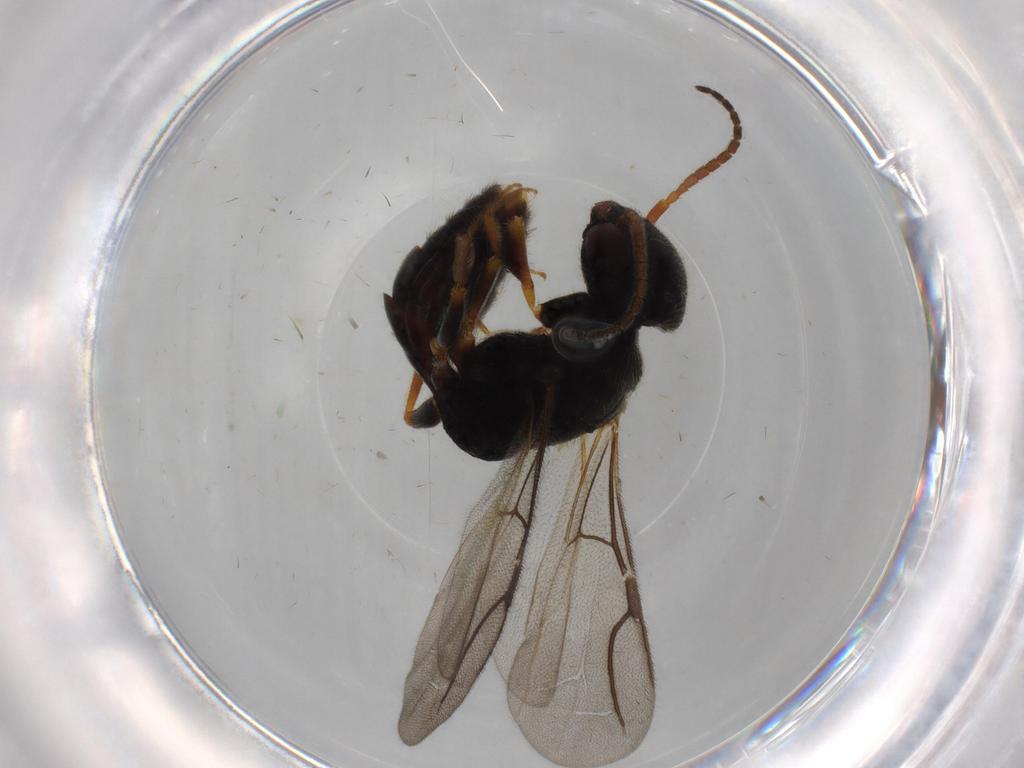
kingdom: Animalia
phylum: Arthropoda
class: Insecta
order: Hymenoptera
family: Bethylidae
